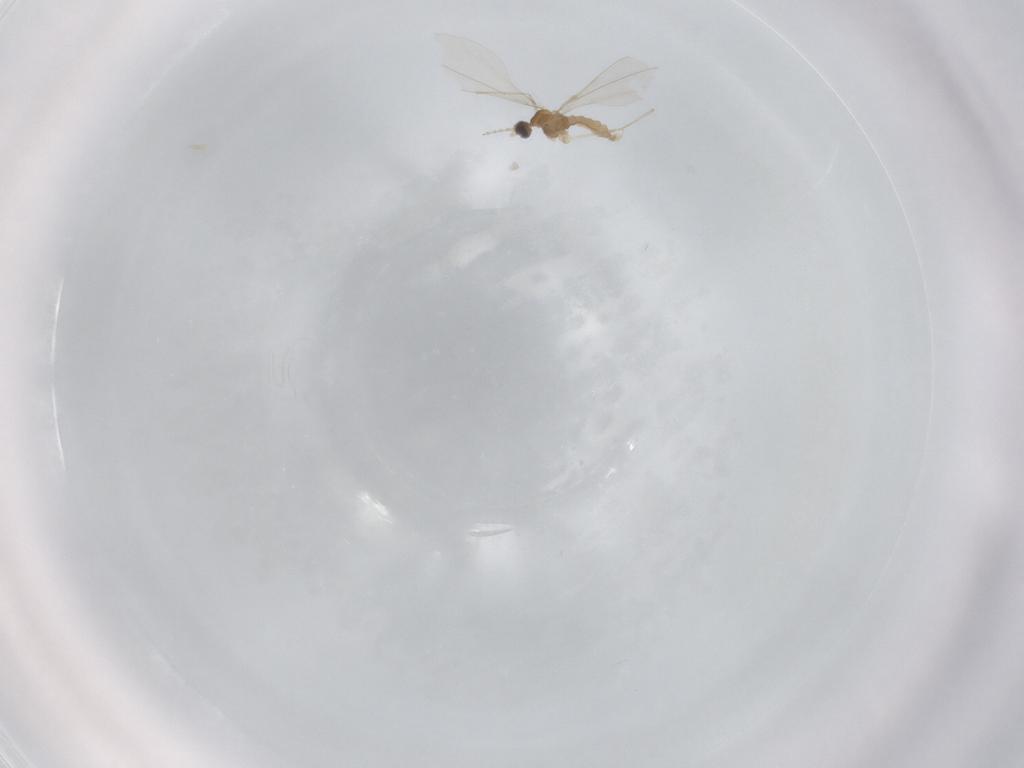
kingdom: Animalia
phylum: Arthropoda
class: Insecta
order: Diptera
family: Cecidomyiidae
